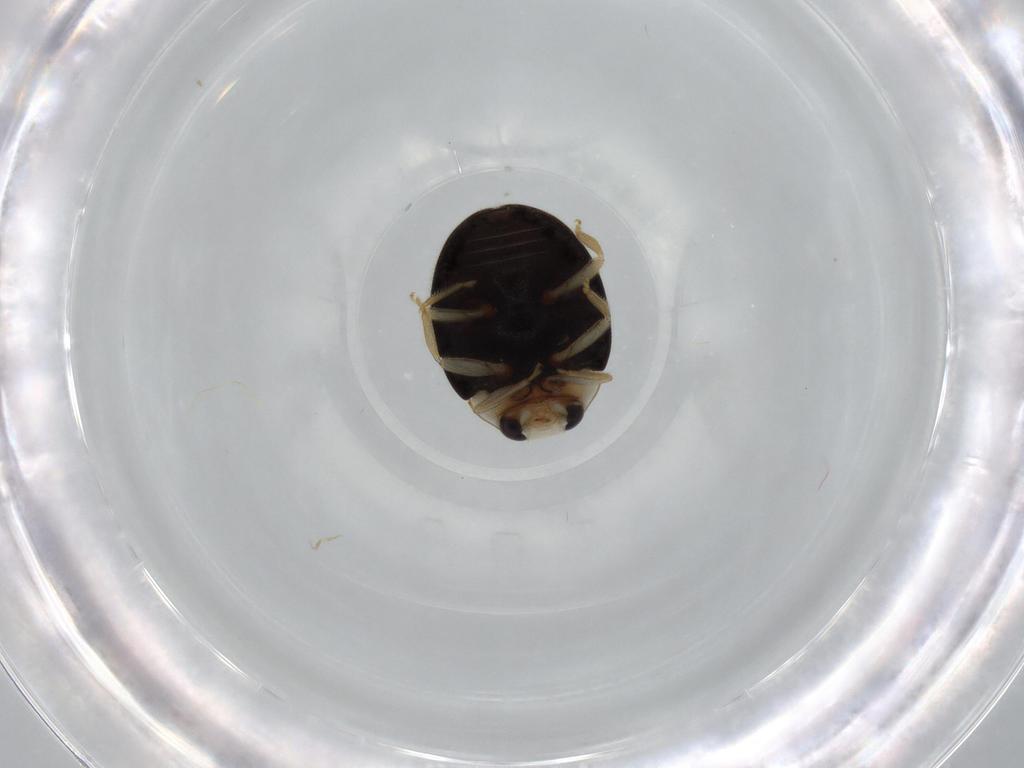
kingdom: Animalia
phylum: Arthropoda
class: Insecta
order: Coleoptera
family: Coccinellidae
